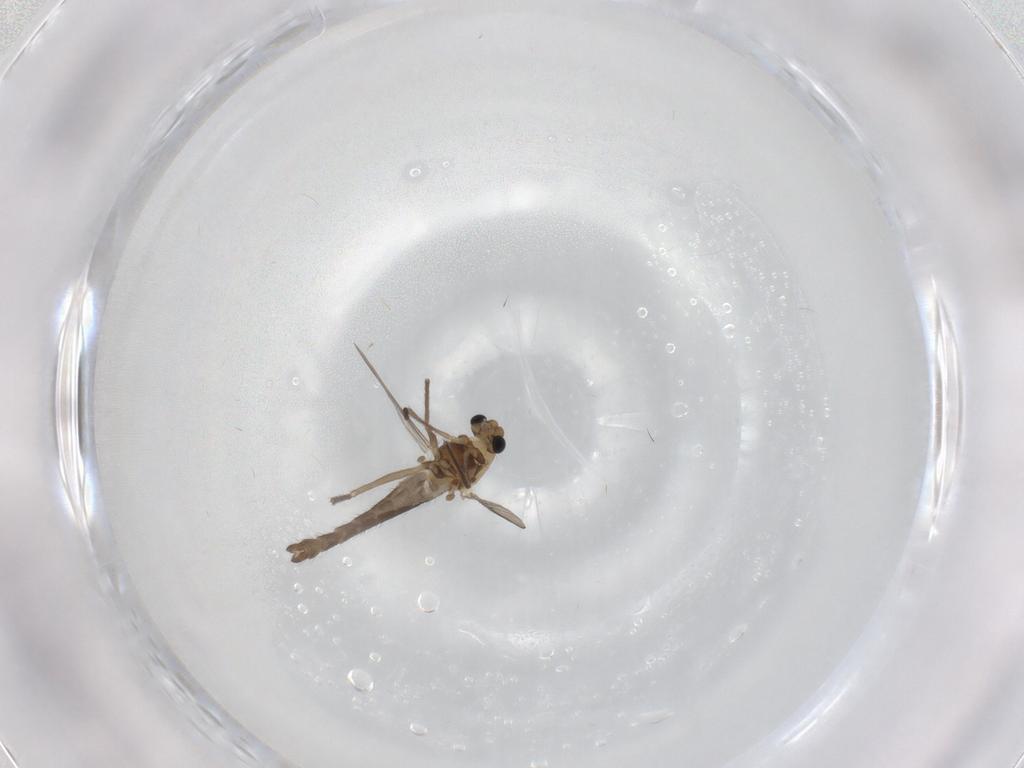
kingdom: Animalia
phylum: Arthropoda
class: Insecta
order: Diptera
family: Chironomidae
